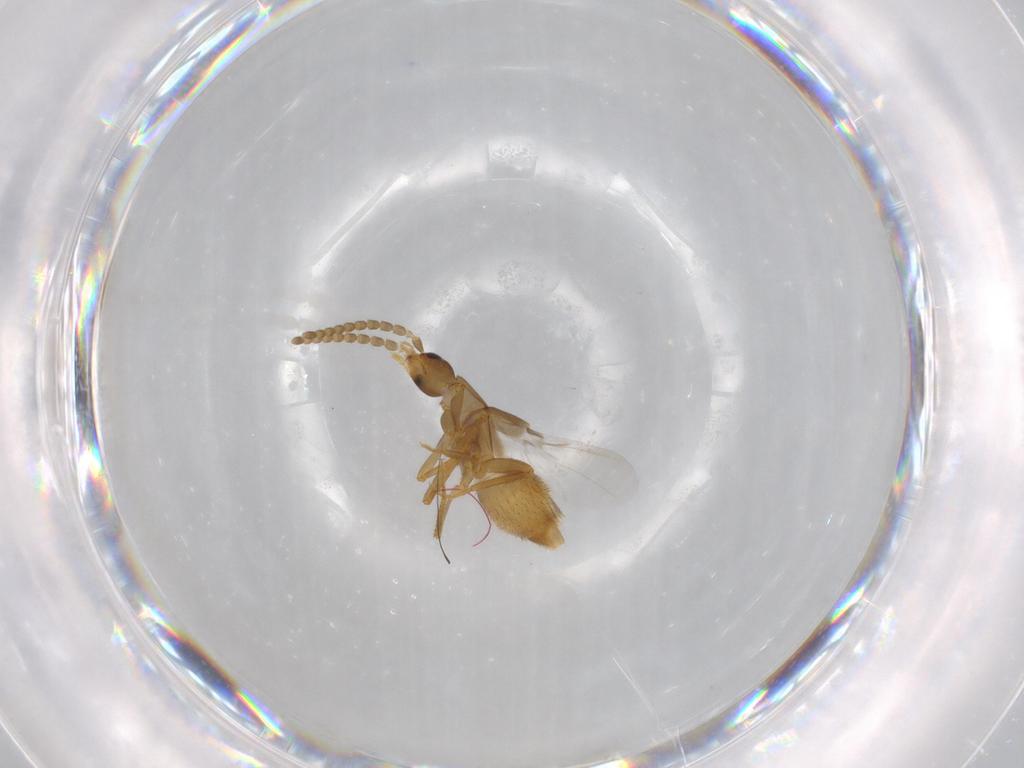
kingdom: Animalia
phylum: Arthropoda
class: Insecta
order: Coleoptera
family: Staphylinidae
